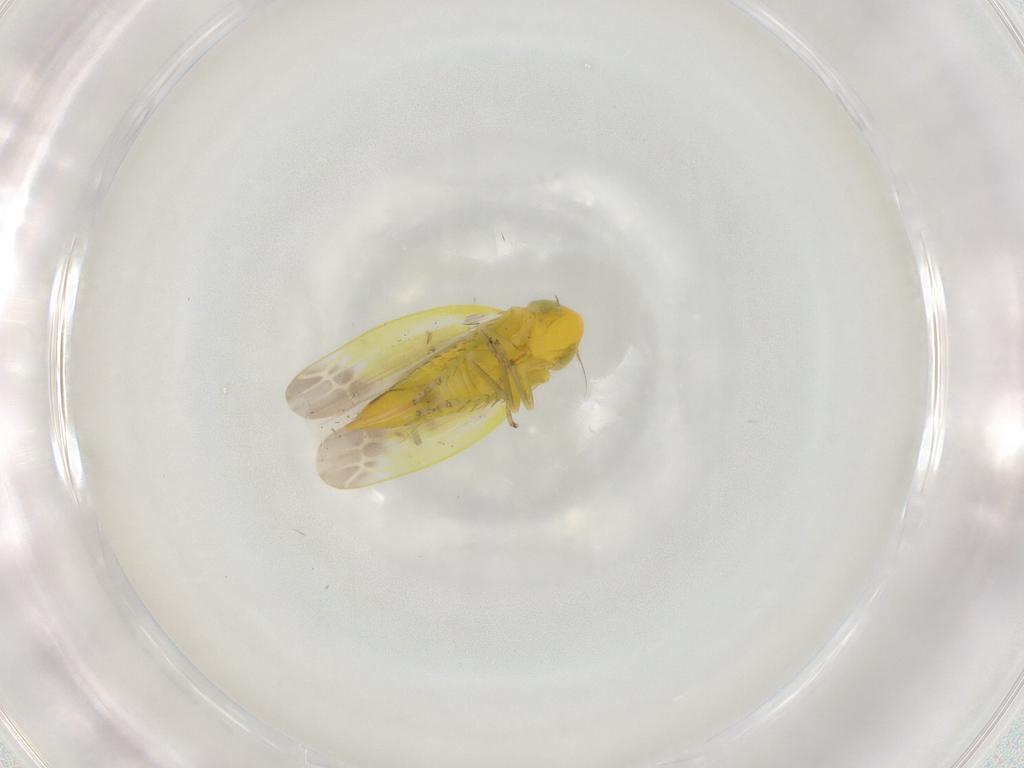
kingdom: Animalia
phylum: Arthropoda
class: Insecta
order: Hemiptera
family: Cicadellidae
